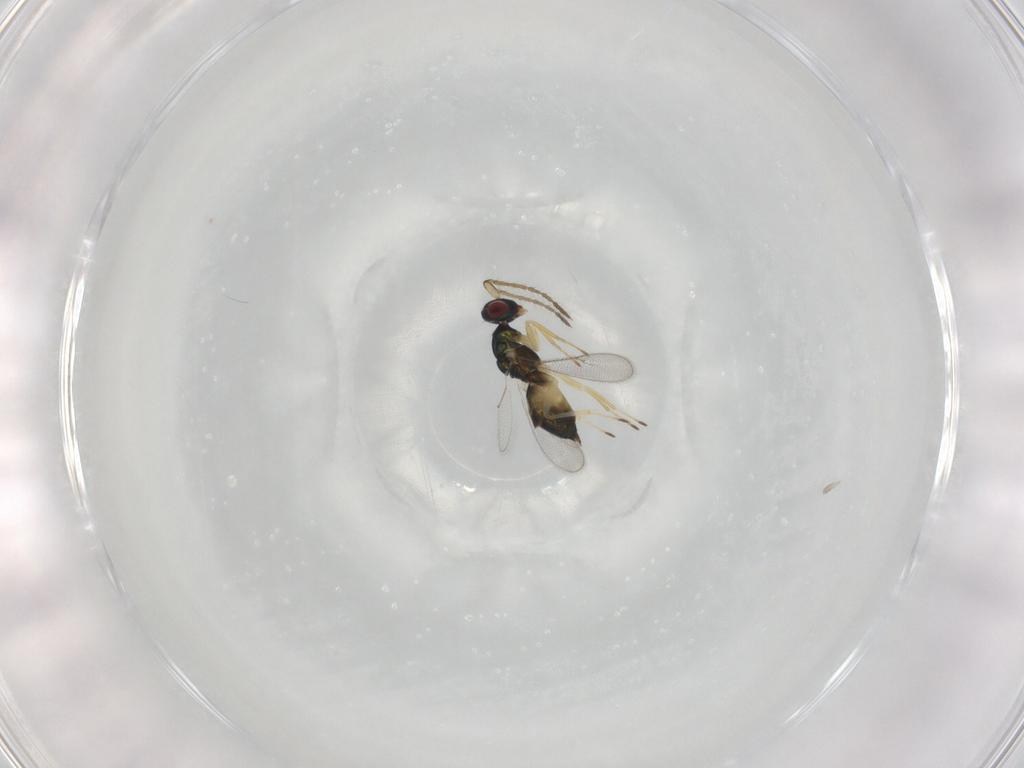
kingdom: Animalia
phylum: Arthropoda
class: Insecta
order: Hymenoptera
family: Eulophidae
